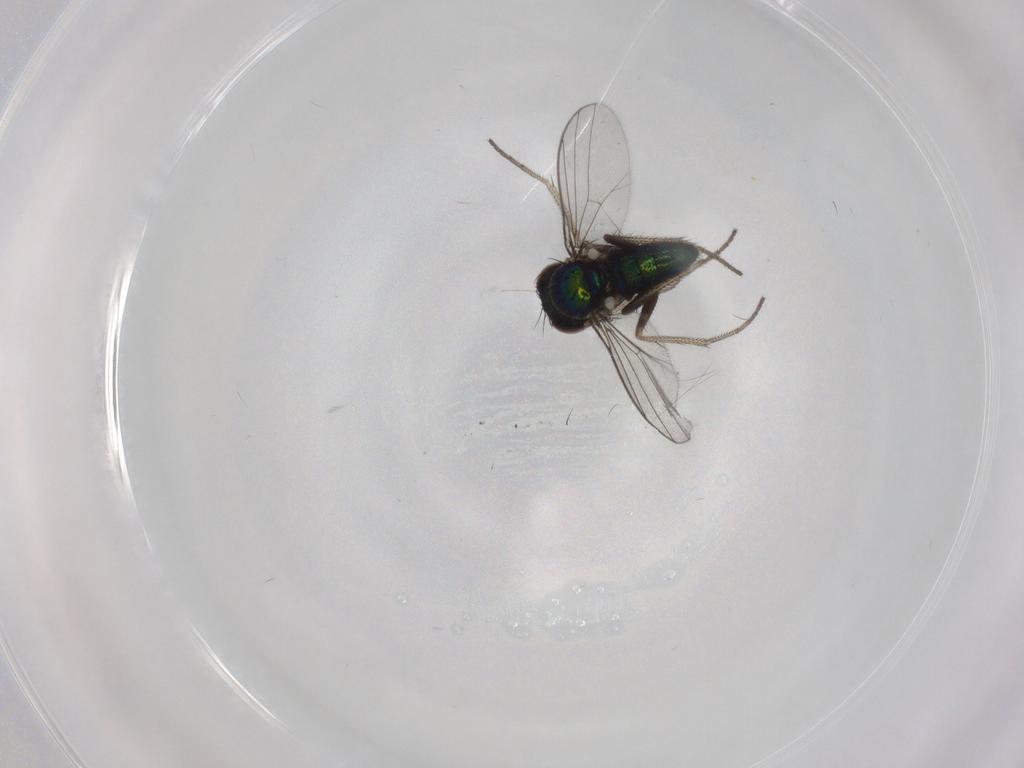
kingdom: Animalia
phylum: Arthropoda
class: Insecta
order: Diptera
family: Dolichopodidae
